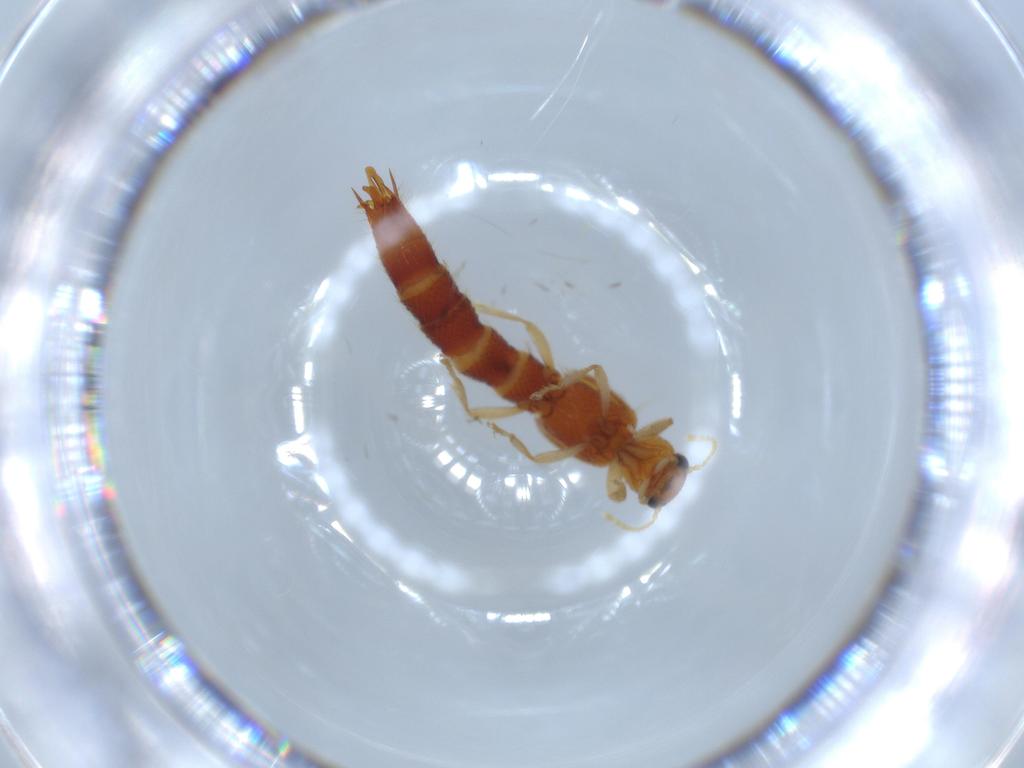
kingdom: Animalia
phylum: Arthropoda
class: Insecta
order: Coleoptera
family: Staphylinidae
